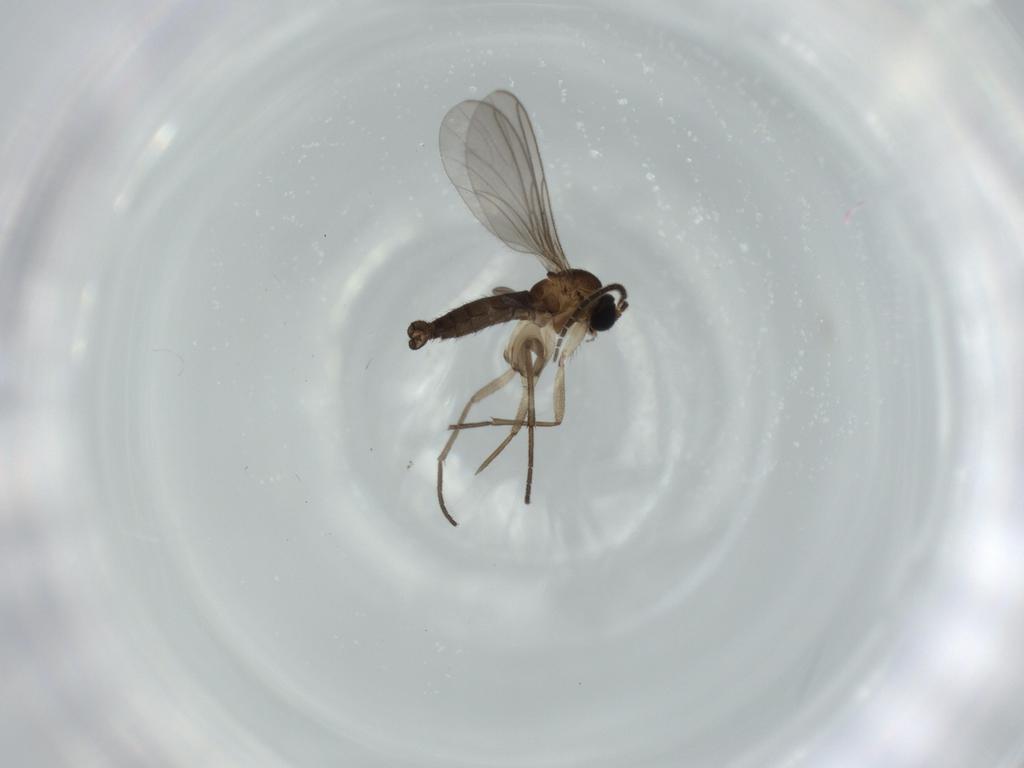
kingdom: Animalia
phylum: Arthropoda
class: Insecta
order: Diptera
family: Sciaridae
